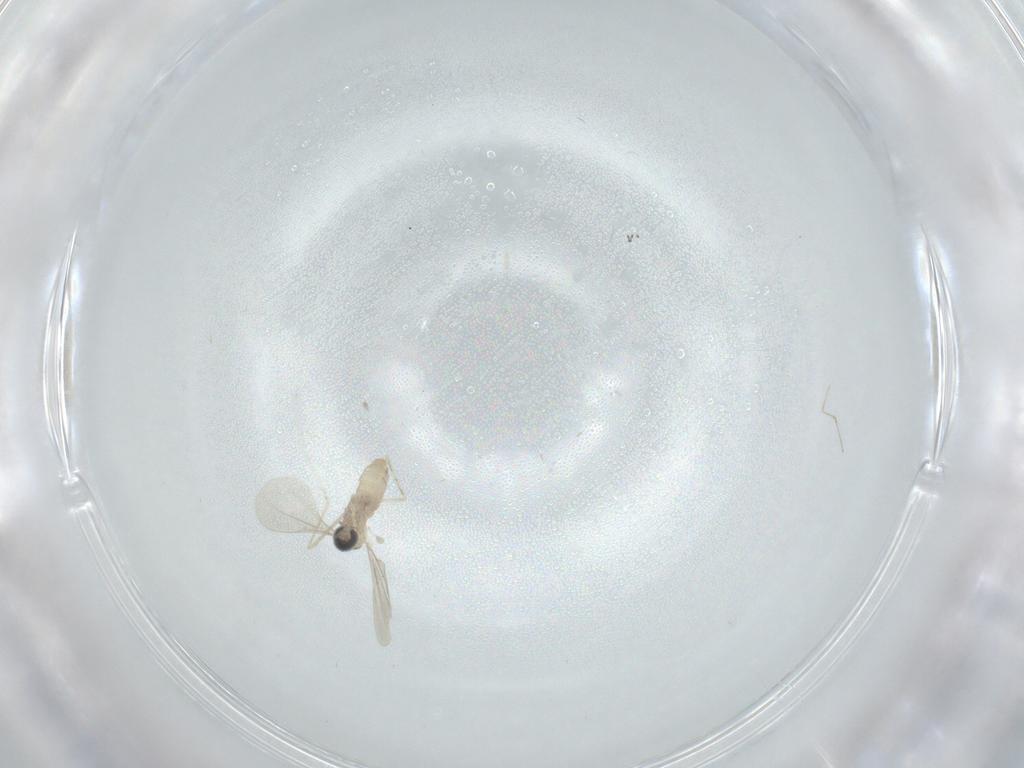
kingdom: Animalia
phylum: Arthropoda
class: Insecta
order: Diptera
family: Cecidomyiidae
